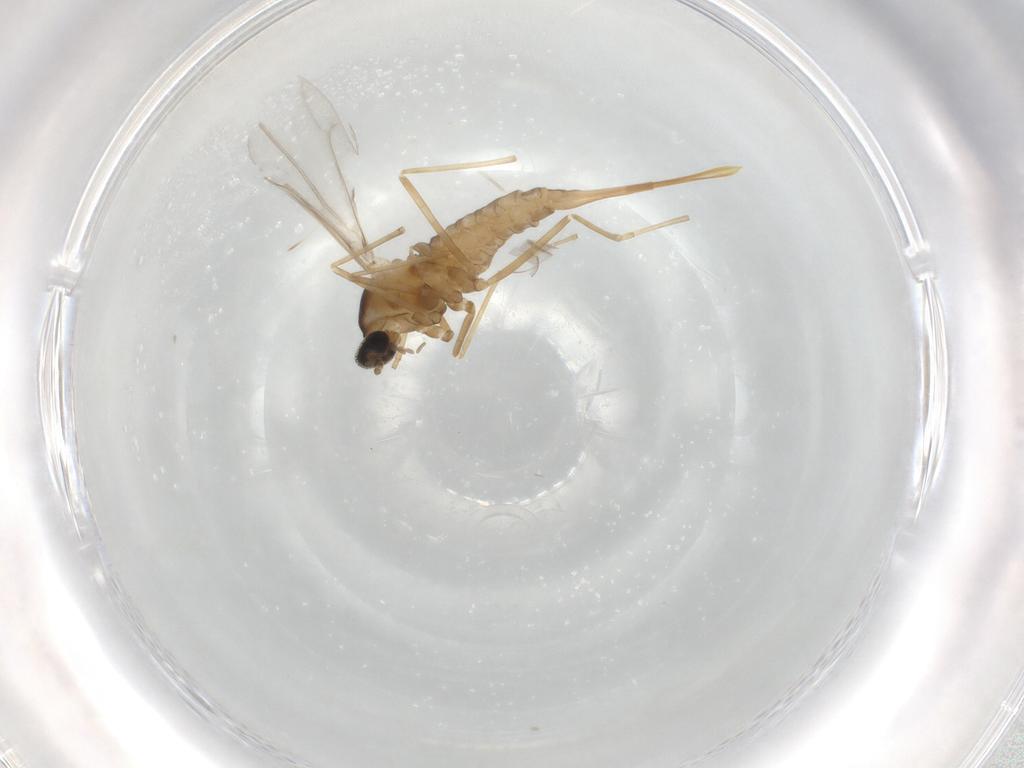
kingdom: Animalia
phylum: Arthropoda
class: Insecta
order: Diptera
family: Cecidomyiidae
